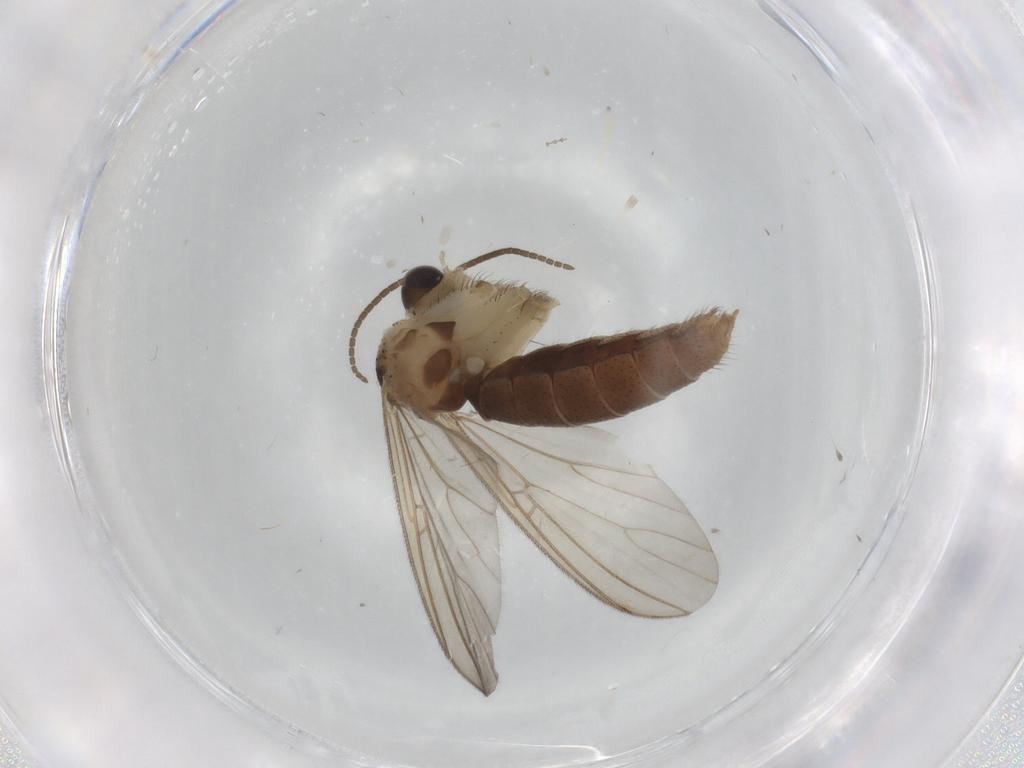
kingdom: Animalia
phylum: Arthropoda
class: Insecta
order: Diptera
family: Mycetophilidae
